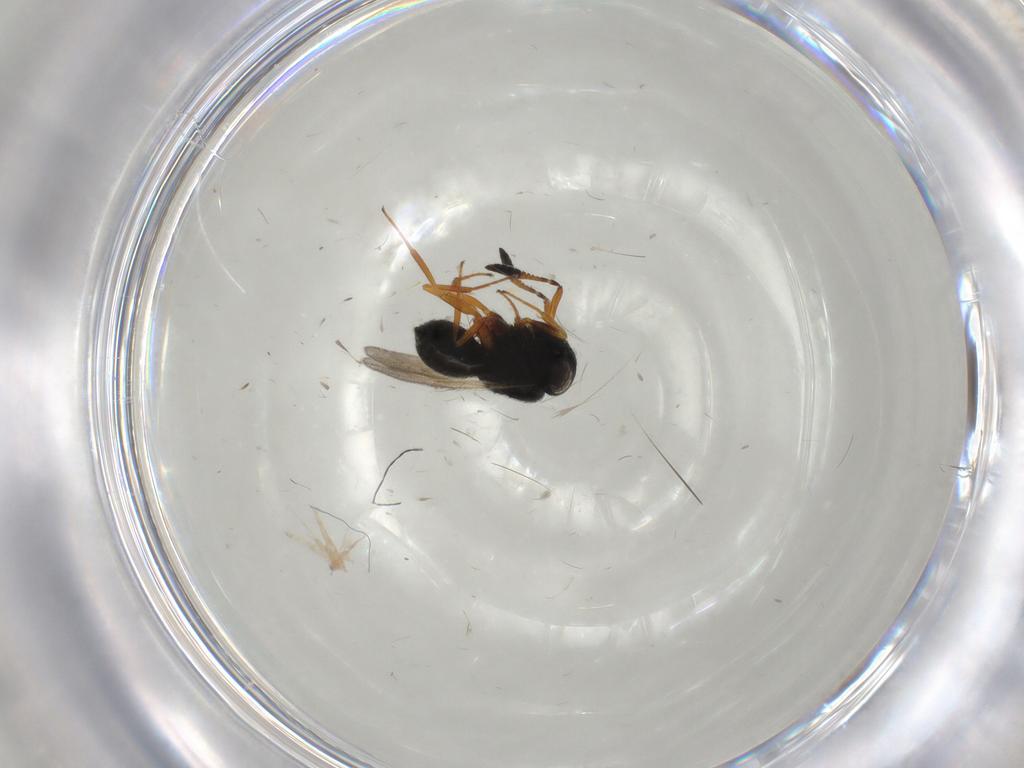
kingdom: Animalia
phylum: Arthropoda
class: Insecta
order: Hymenoptera
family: Scelionidae
